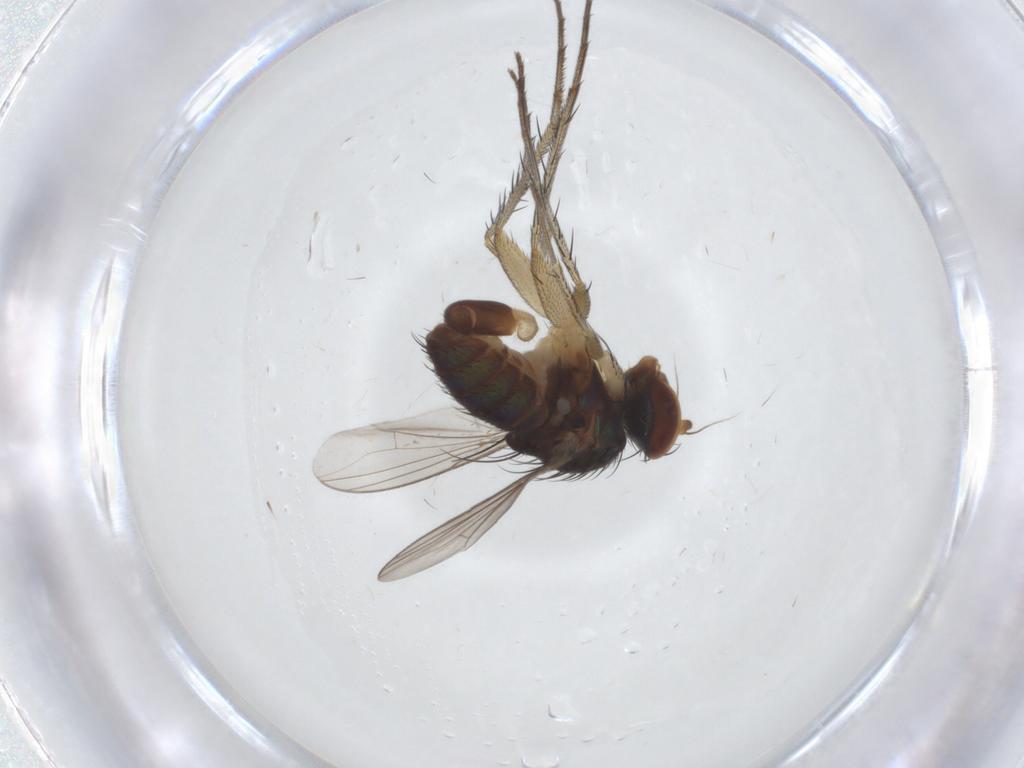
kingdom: Animalia
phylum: Arthropoda
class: Insecta
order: Diptera
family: Dolichopodidae
